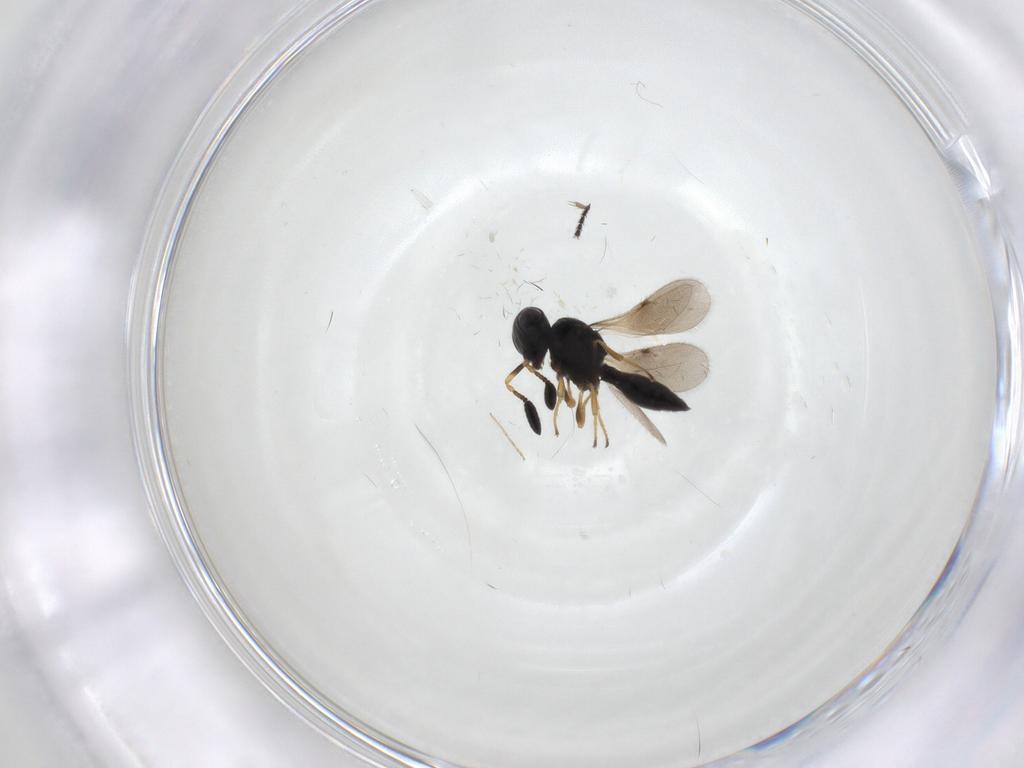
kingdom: Animalia
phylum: Arthropoda
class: Insecta
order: Hymenoptera
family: Scelionidae
